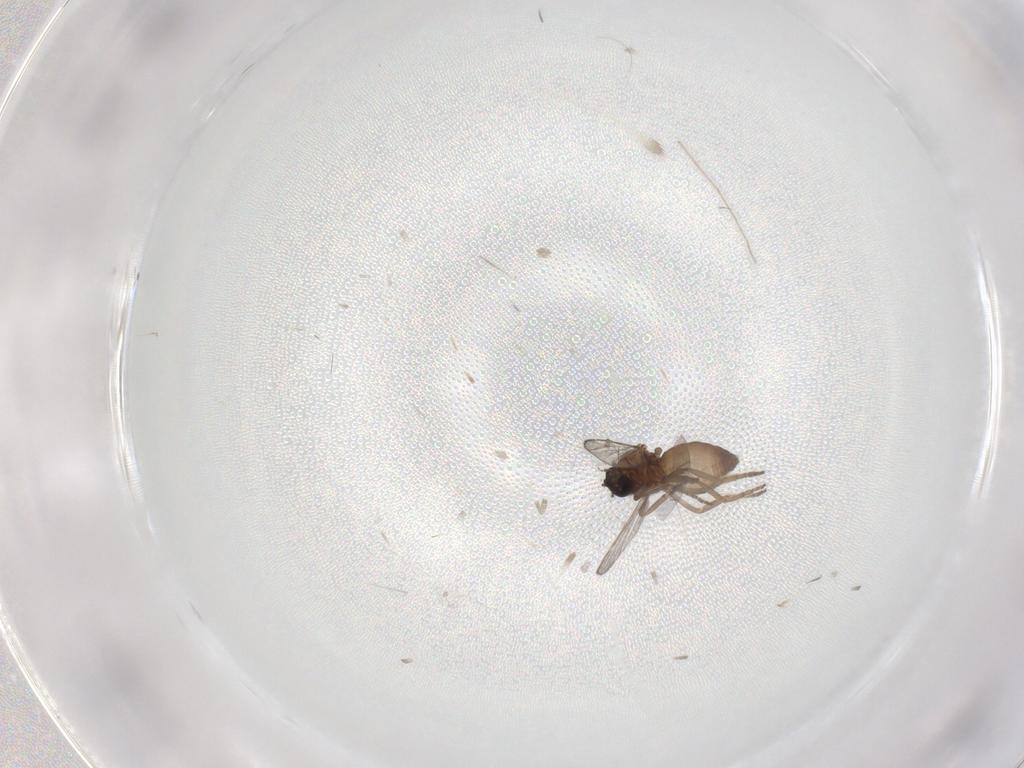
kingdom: Animalia
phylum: Arthropoda
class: Insecta
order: Diptera
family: Ceratopogonidae
